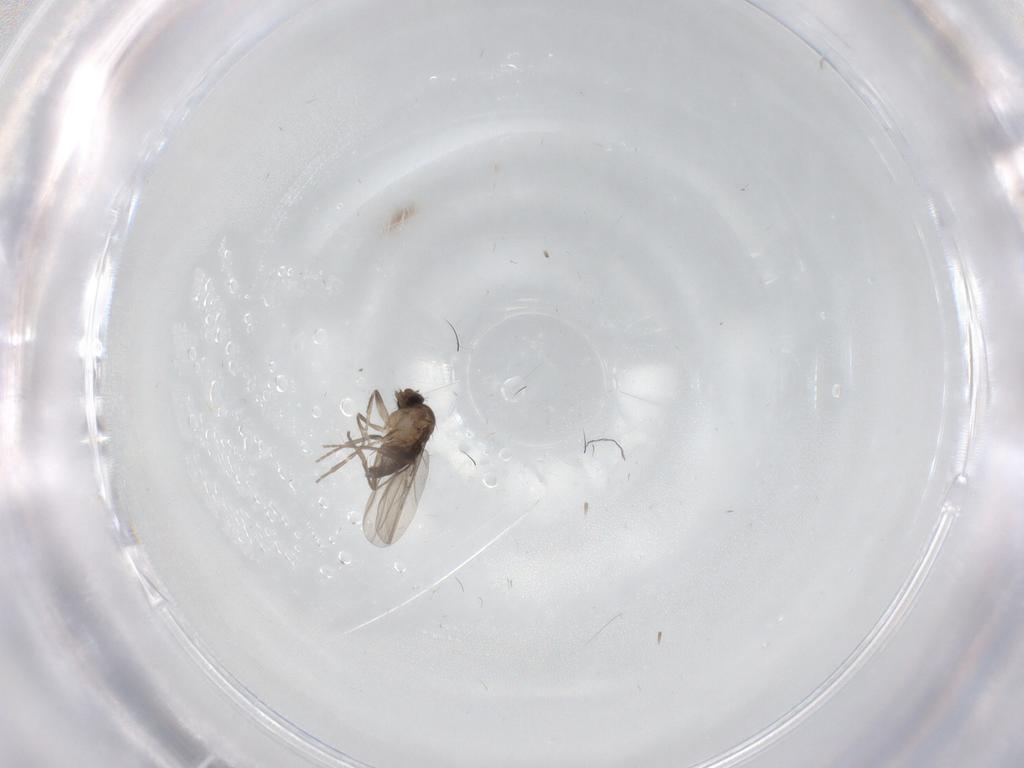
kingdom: Animalia
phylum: Arthropoda
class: Insecta
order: Diptera
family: Phoridae
